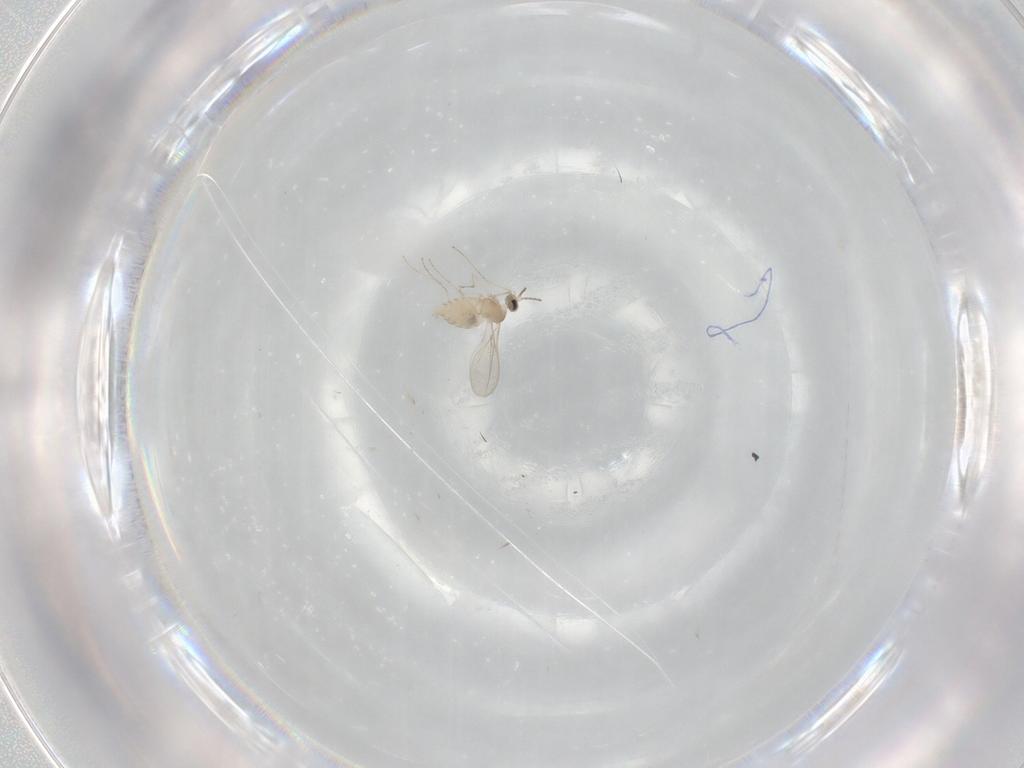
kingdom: Animalia
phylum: Arthropoda
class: Insecta
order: Diptera
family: Cecidomyiidae
